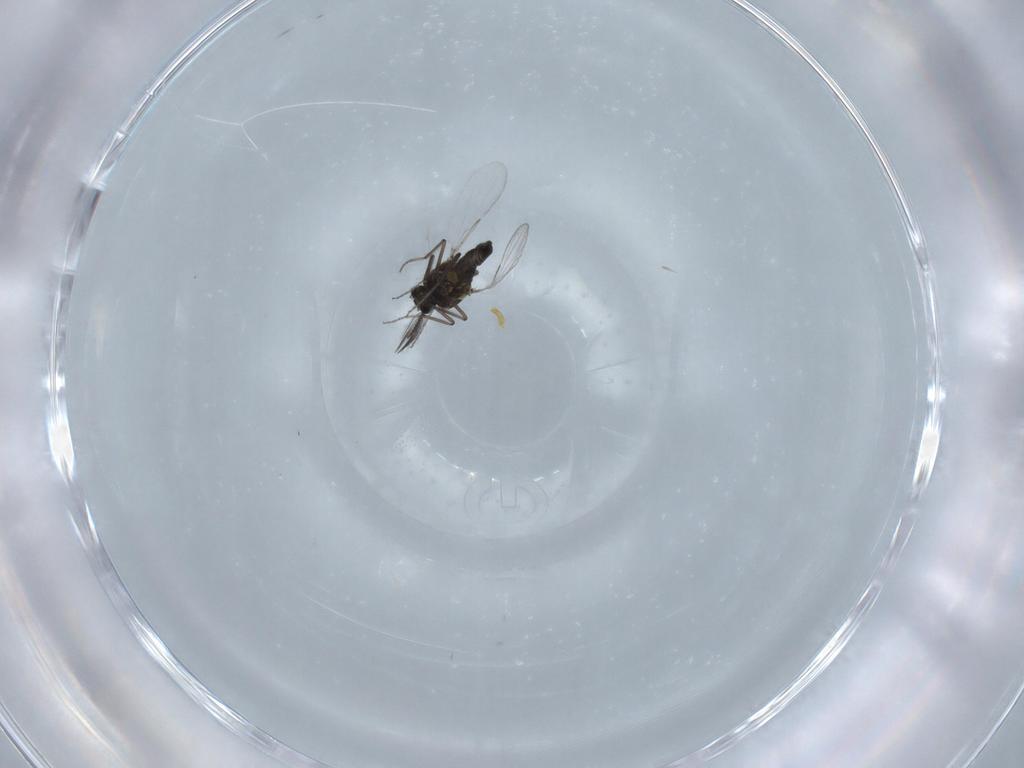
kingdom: Animalia
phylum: Arthropoda
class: Insecta
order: Diptera
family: Ceratopogonidae
